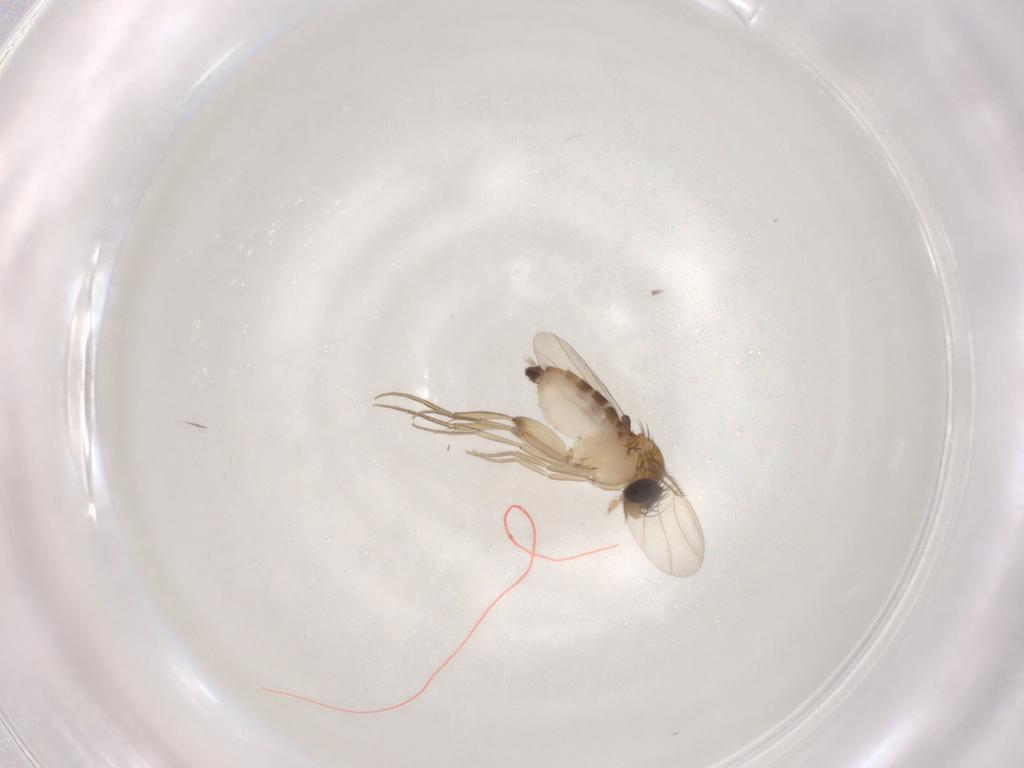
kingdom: Animalia
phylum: Arthropoda
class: Insecta
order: Diptera
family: Phoridae
